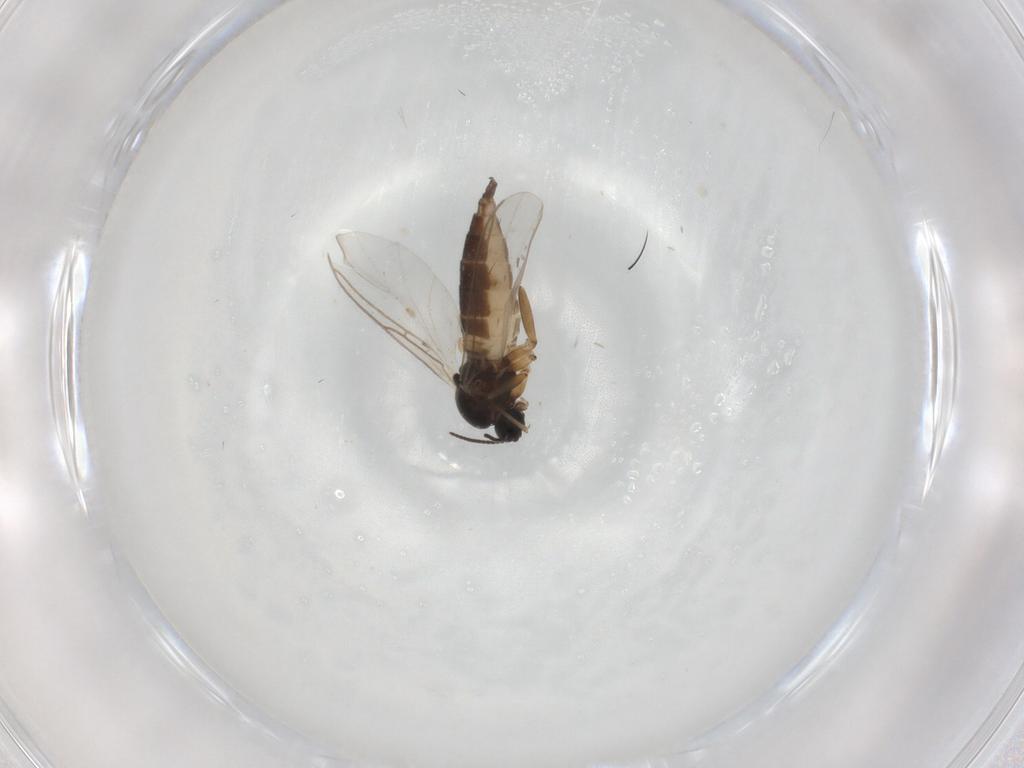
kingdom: Animalia
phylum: Arthropoda
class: Insecta
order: Diptera
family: Sciaridae
